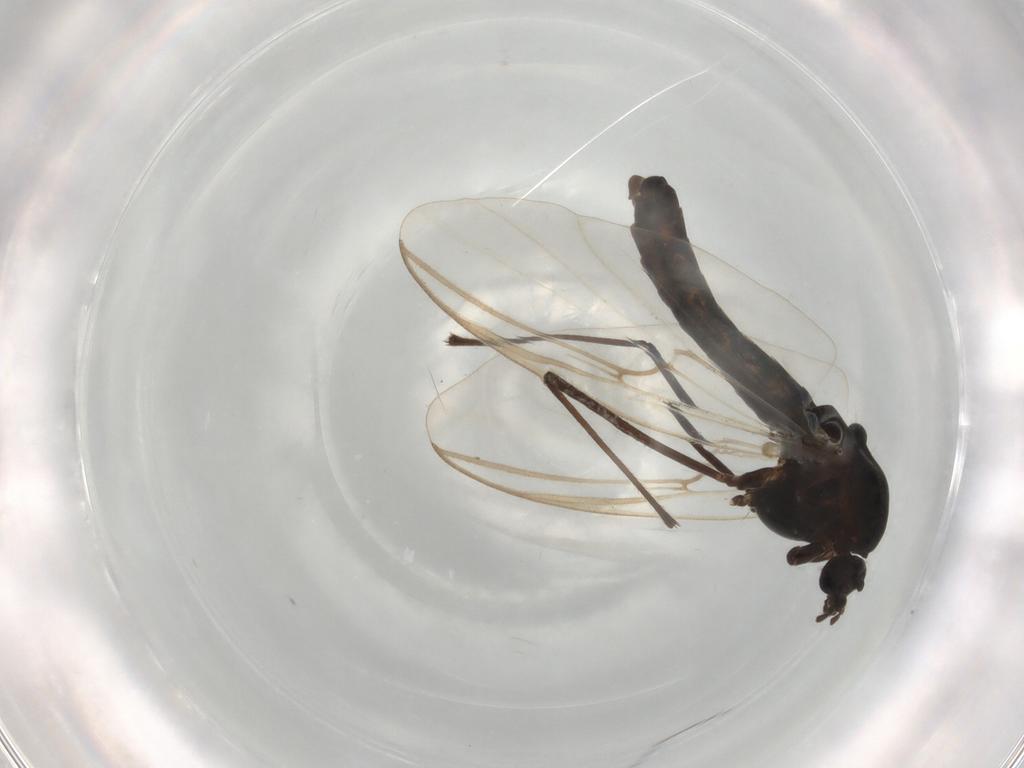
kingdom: Animalia
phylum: Arthropoda
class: Insecta
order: Diptera
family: Chironomidae
